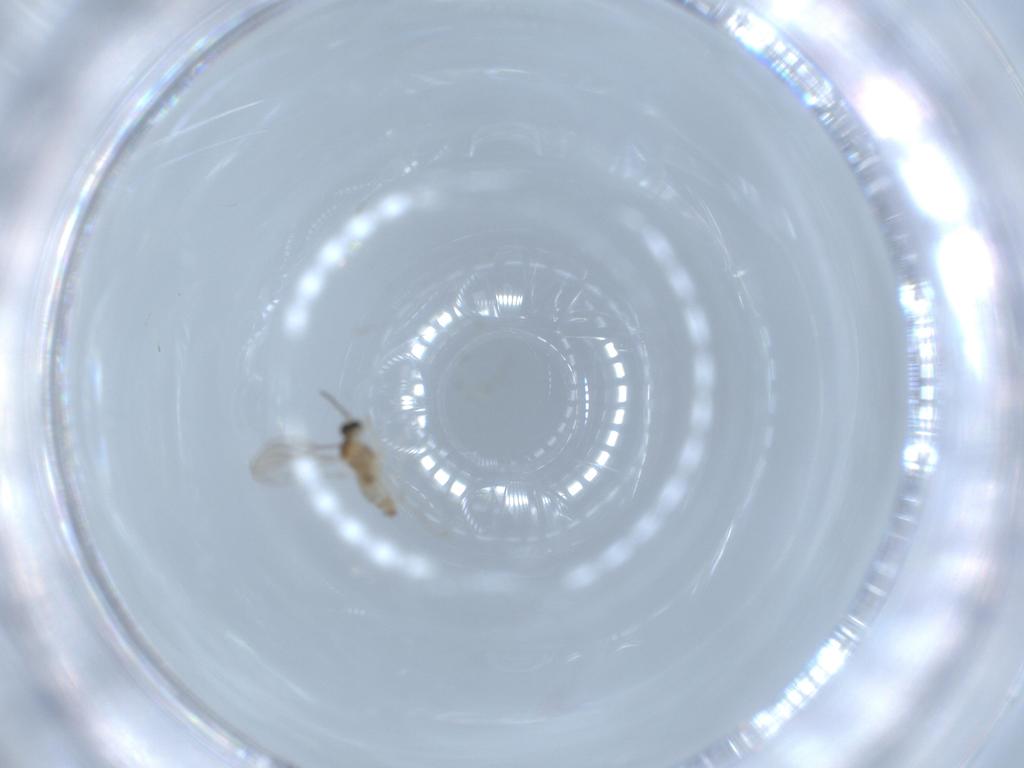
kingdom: Animalia
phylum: Arthropoda
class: Insecta
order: Diptera
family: Cecidomyiidae
